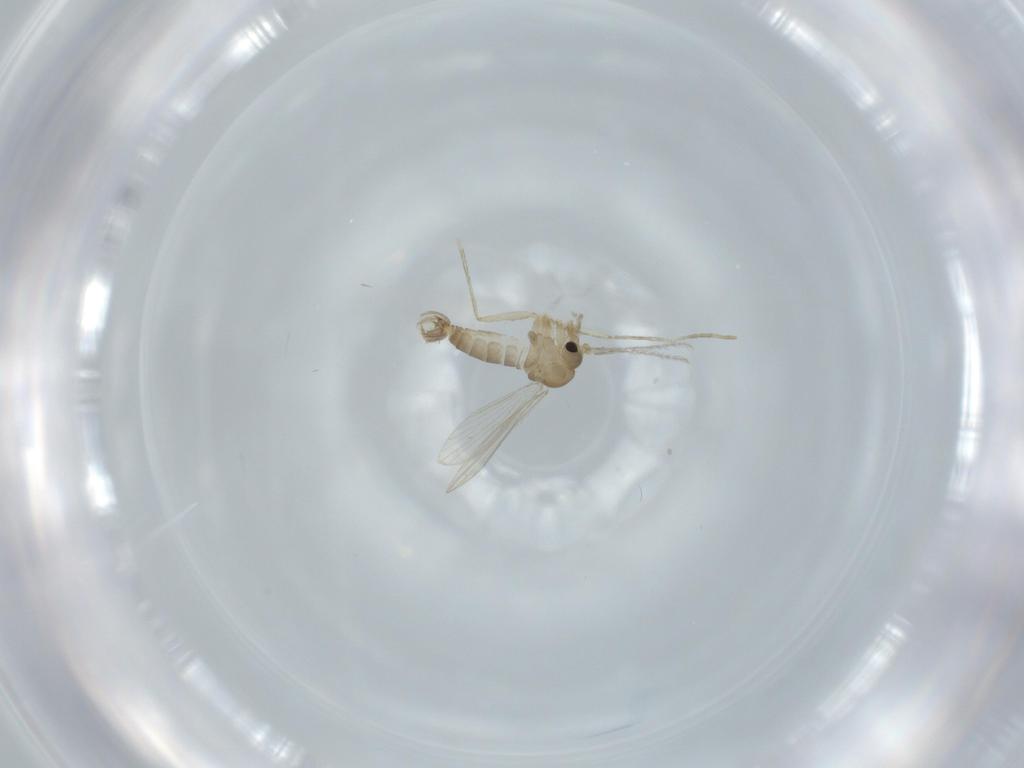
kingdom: Animalia
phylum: Arthropoda
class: Insecta
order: Diptera
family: Psychodidae
